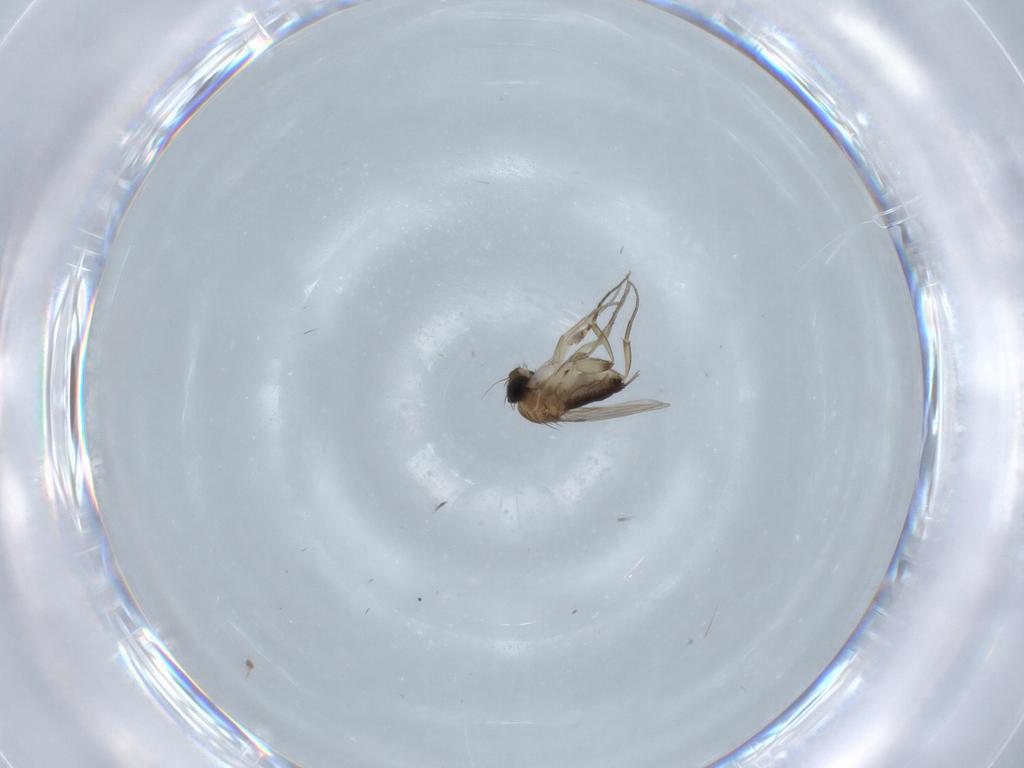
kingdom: Animalia
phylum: Arthropoda
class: Insecta
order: Diptera
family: Phoridae
